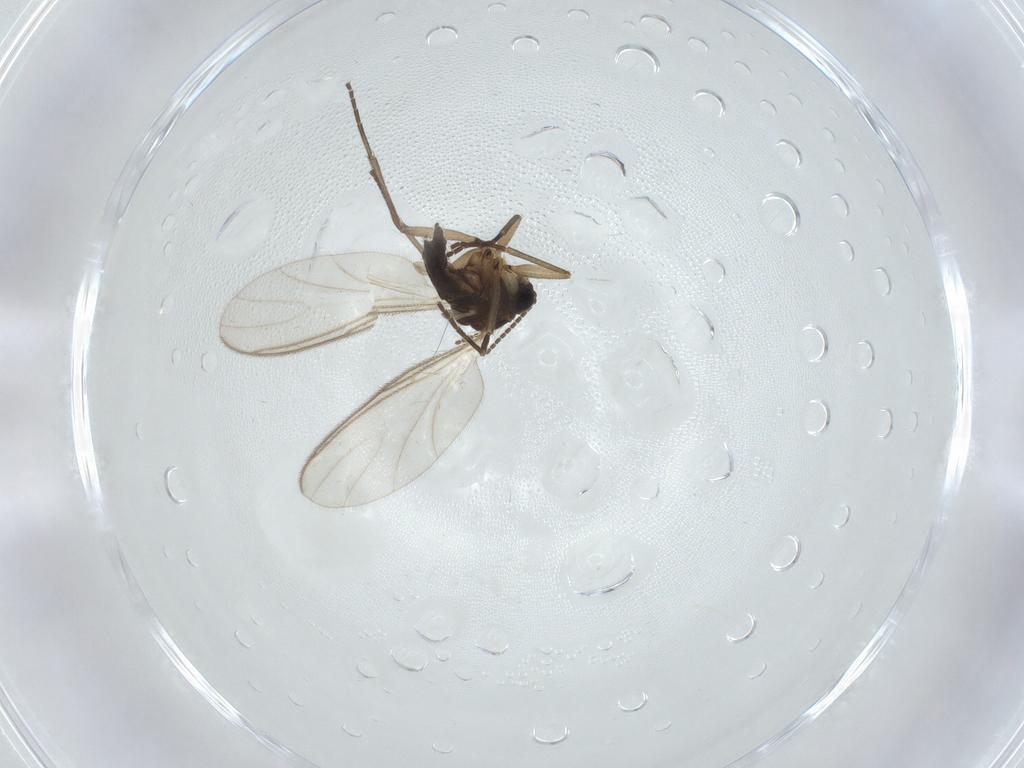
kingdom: Animalia
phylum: Arthropoda
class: Insecta
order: Diptera
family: Sciaridae
